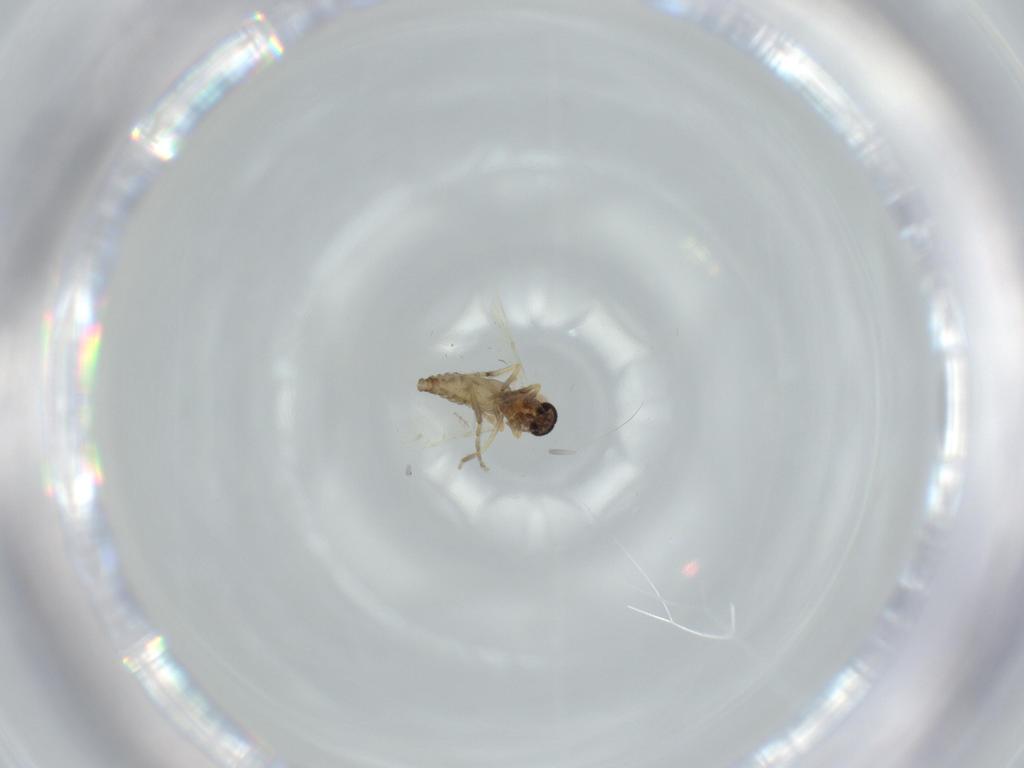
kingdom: Animalia
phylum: Arthropoda
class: Insecta
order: Diptera
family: Ceratopogonidae
